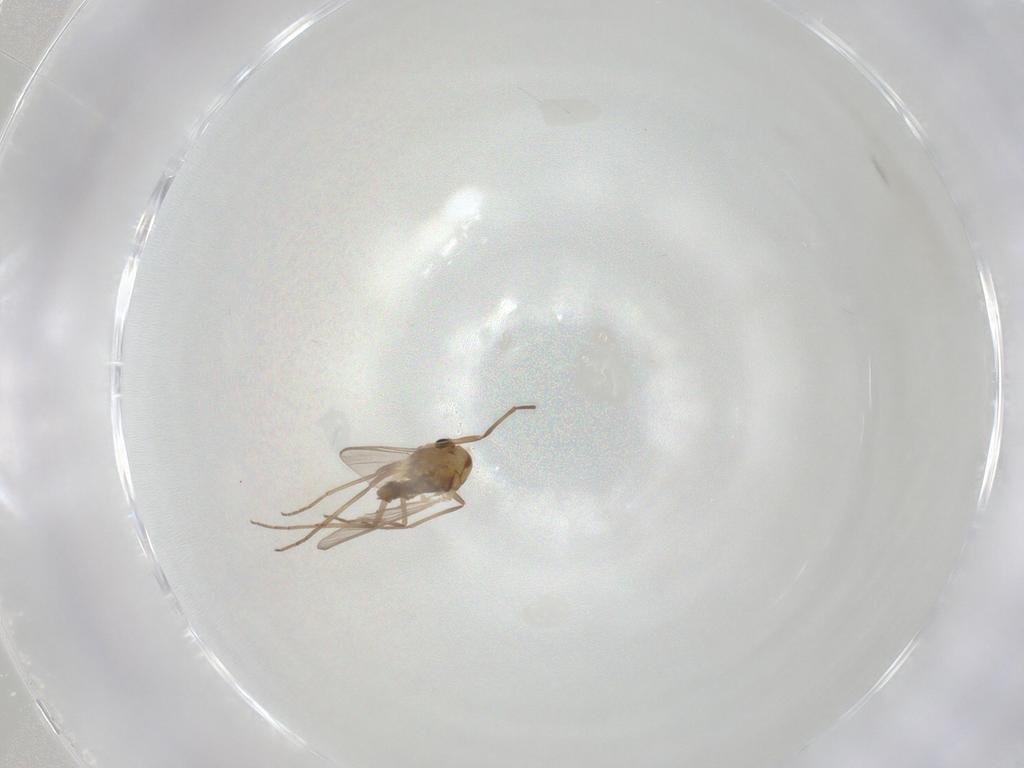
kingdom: Animalia
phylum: Arthropoda
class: Insecta
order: Diptera
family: Chironomidae
